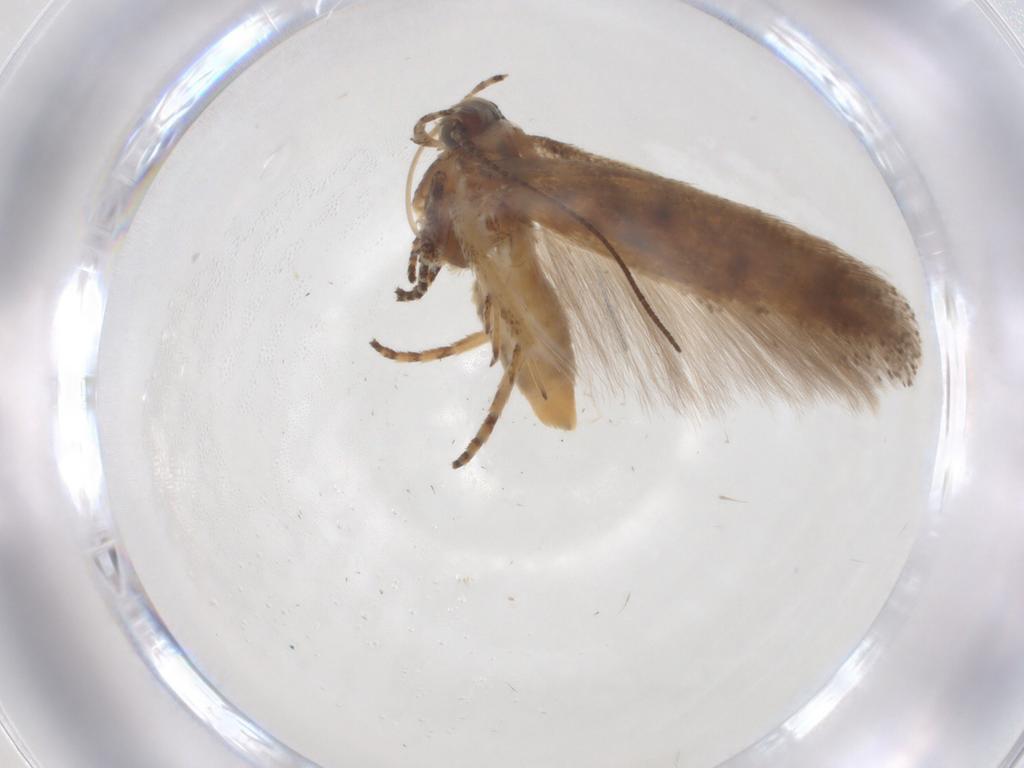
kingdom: Animalia
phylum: Arthropoda
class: Insecta
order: Lepidoptera
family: Gelechiidae
